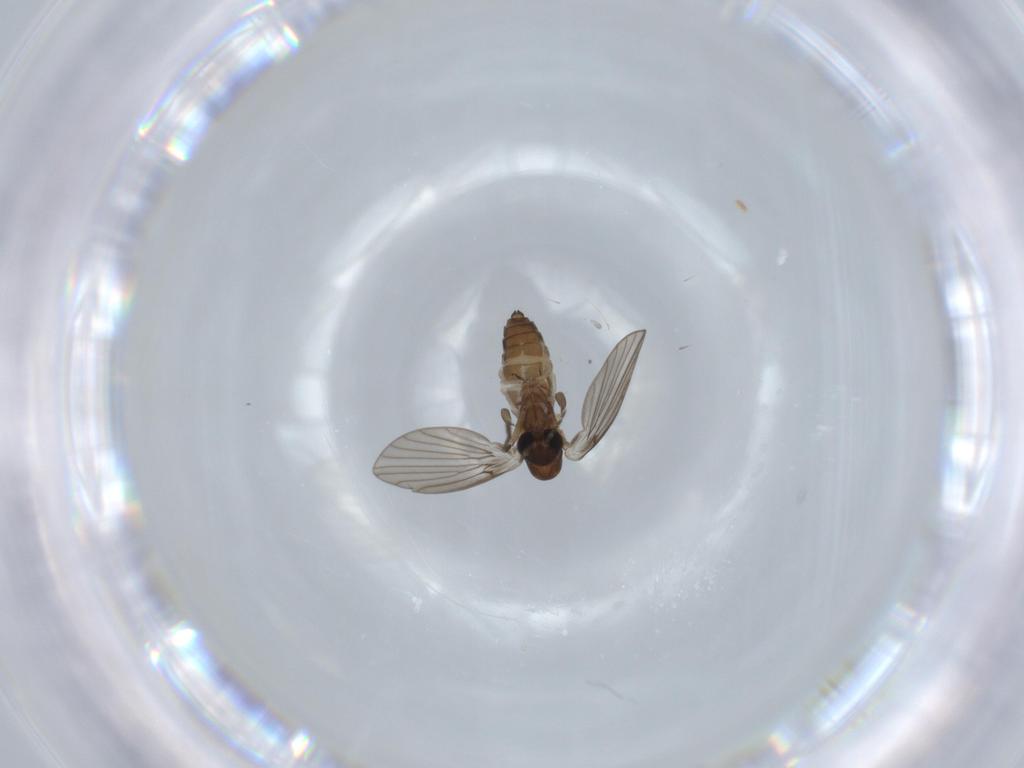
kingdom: Animalia
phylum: Arthropoda
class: Insecta
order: Diptera
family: Psychodidae
